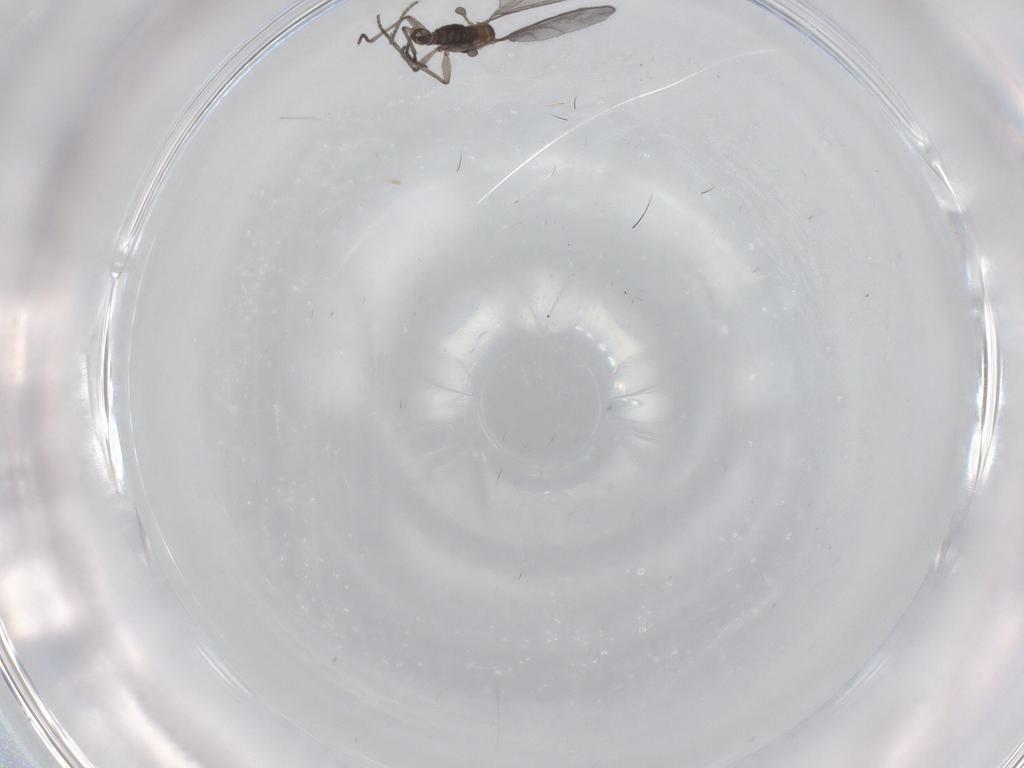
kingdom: Animalia
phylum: Arthropoda
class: Insecta
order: Diptera
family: Sciaridae
